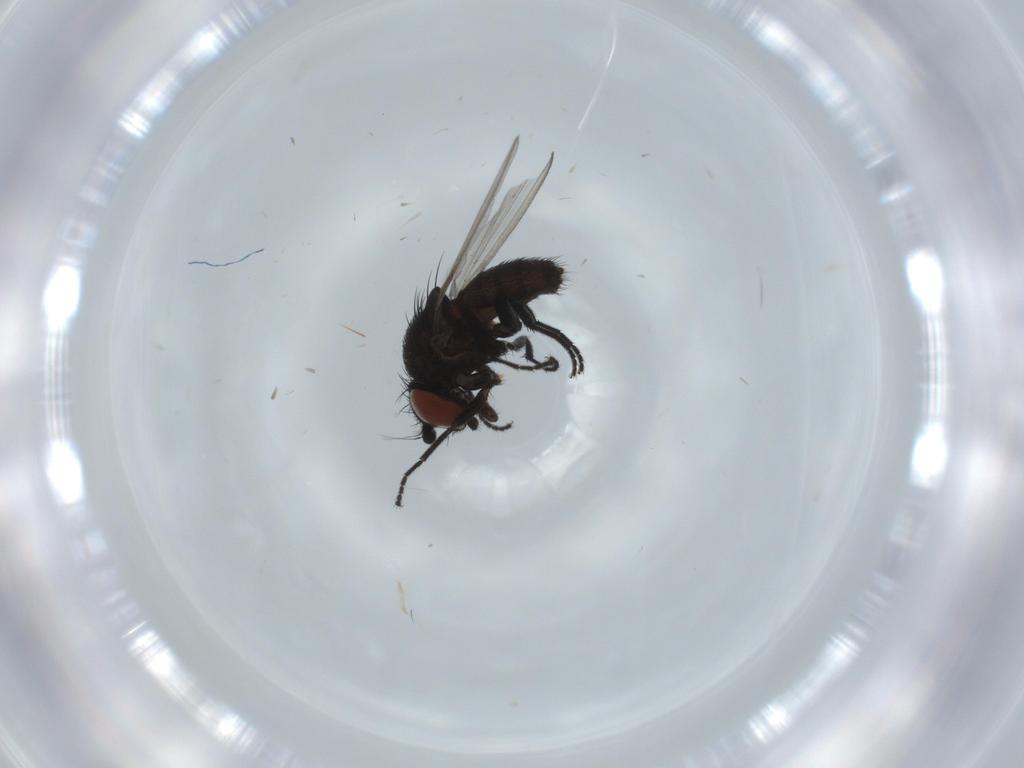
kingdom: Animalia
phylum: Arthropoda
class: Insecta
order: Diptera
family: Milichiidae
